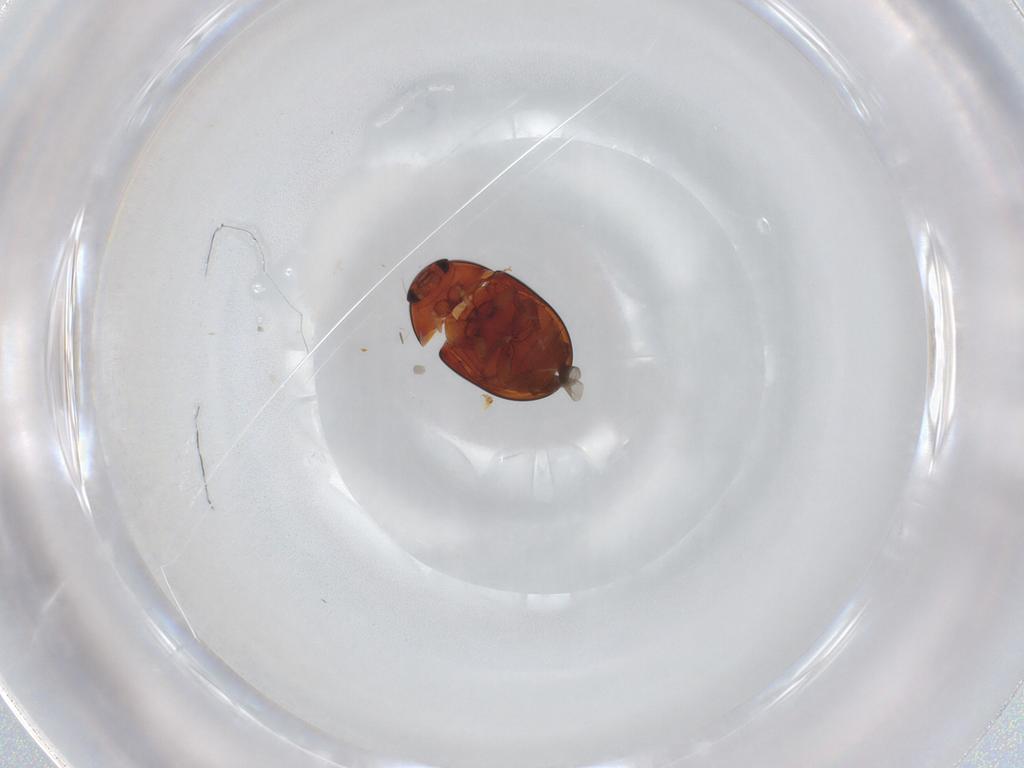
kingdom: Animalia
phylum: Arthropoda
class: Insecta
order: Coleoptera
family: Phalacridae
